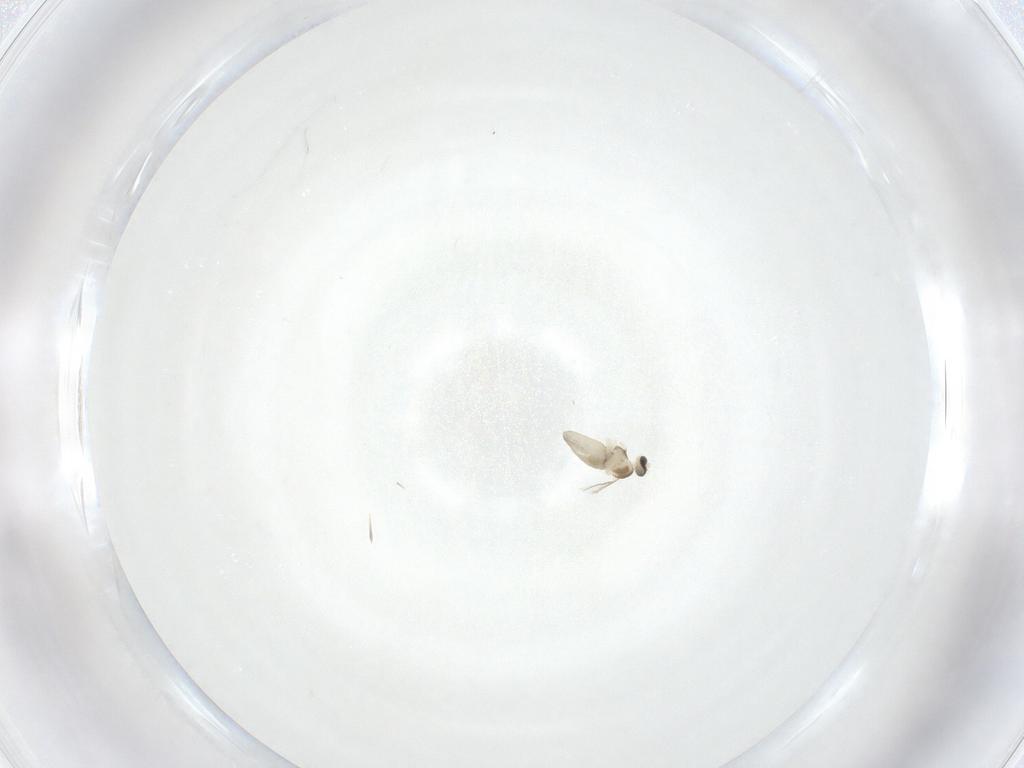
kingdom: Animalia
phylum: Arthropoda
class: Insecta
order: Diptera
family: Cecidomyiidae
